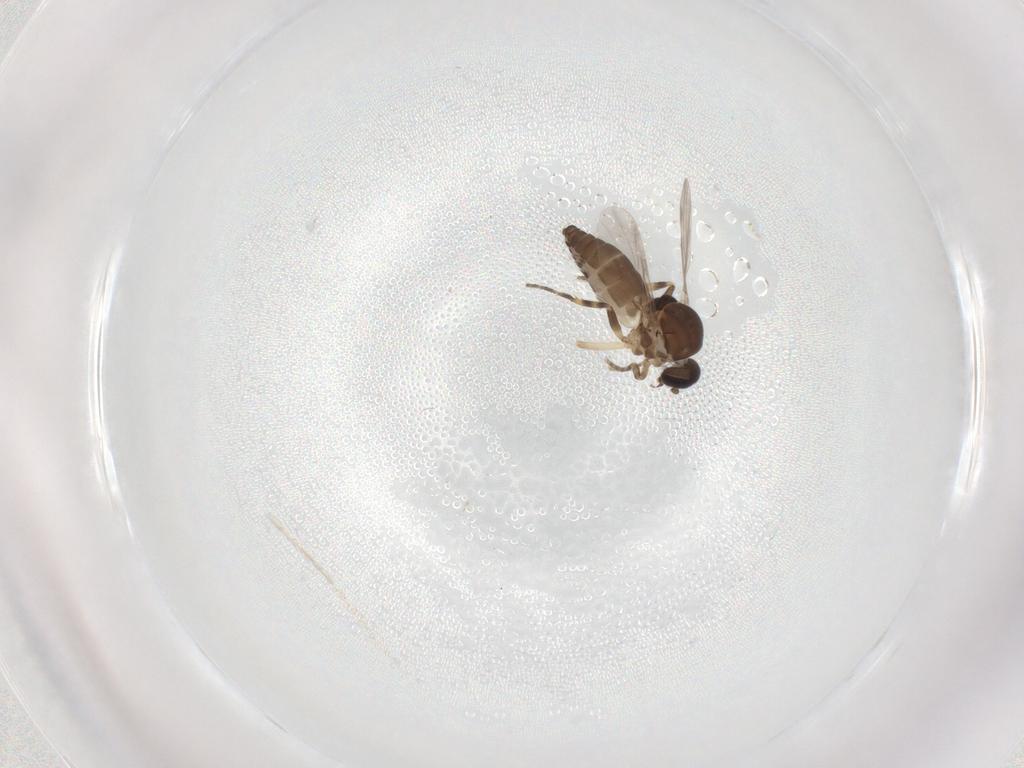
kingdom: Animalia
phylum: Arthropoda
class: Insecta
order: Diptera
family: Ceratopogonidae
